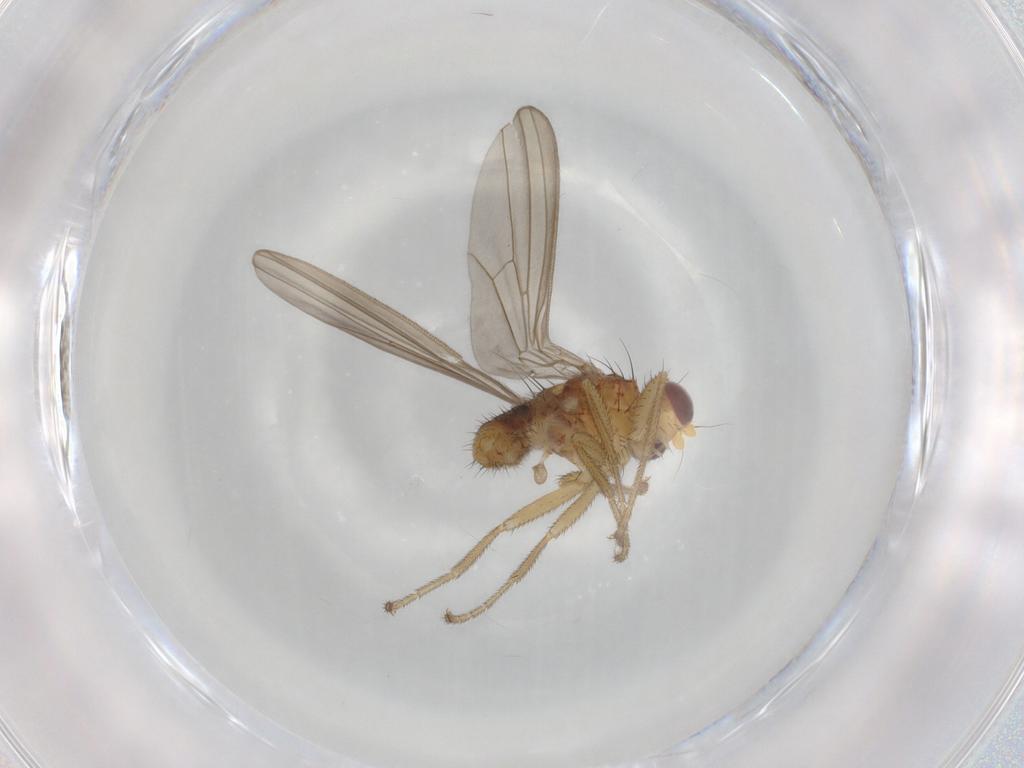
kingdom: Animalia
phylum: Arthropoda
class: Insecta
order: Diptera
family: Natalimyzidae
